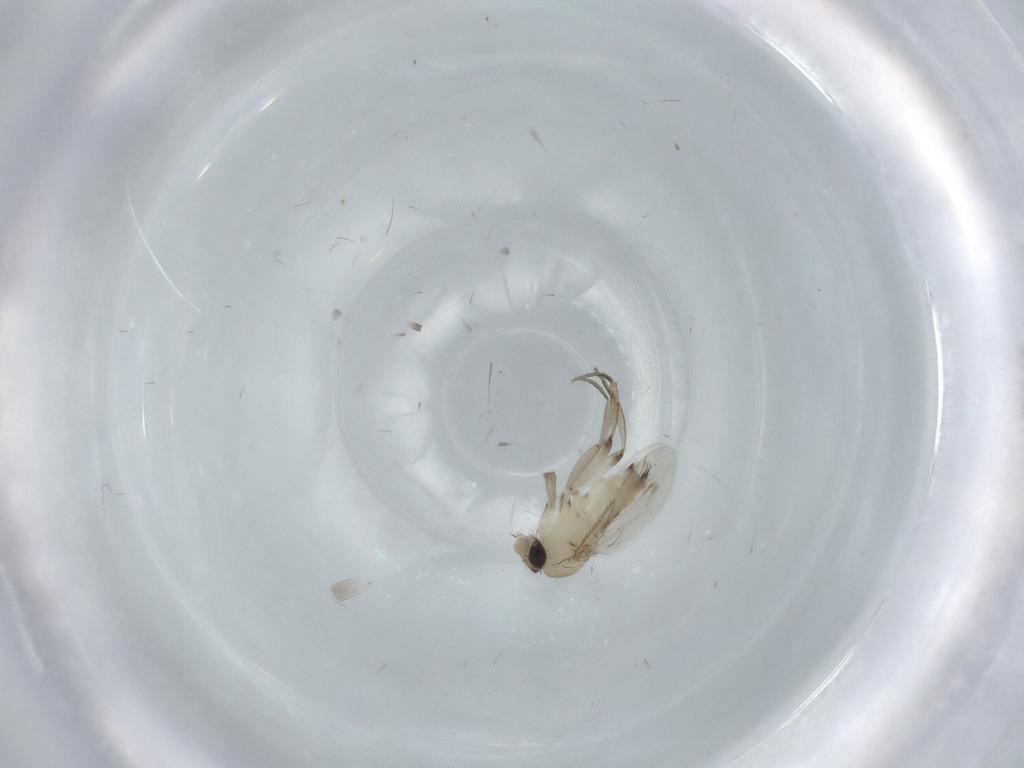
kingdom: Animalia
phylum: Arthropoda
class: Insecta
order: Diptera
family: Phoridae
